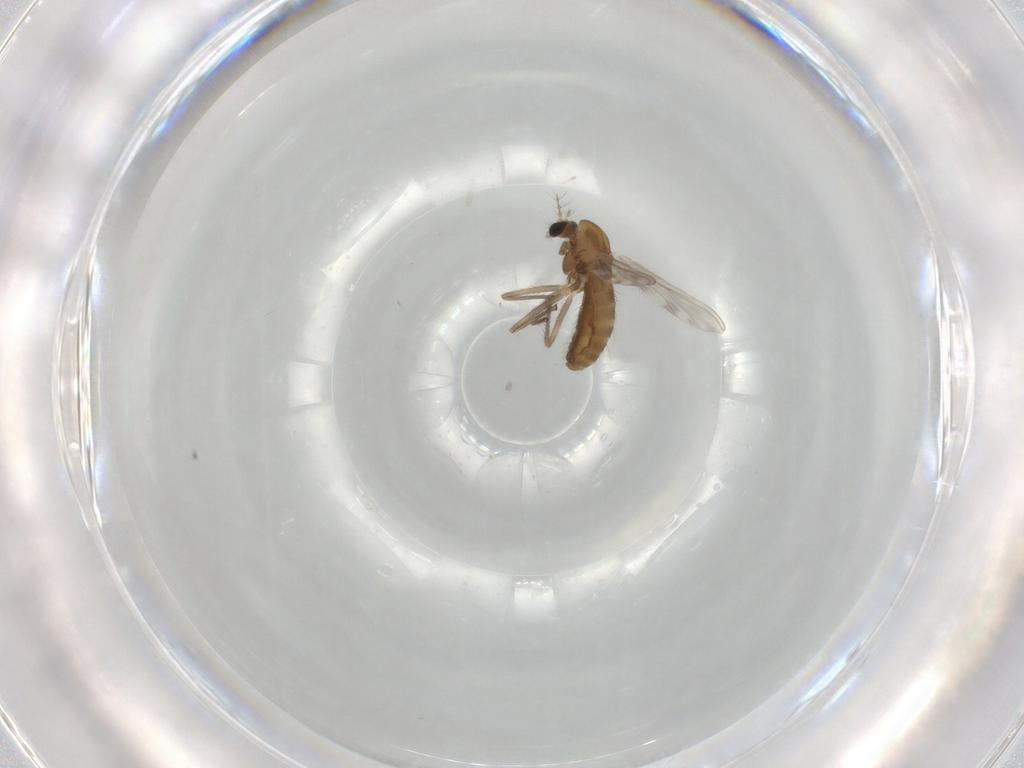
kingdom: Animalia
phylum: Arthropoda
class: Insecta
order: Diptera
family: Chironomidae
